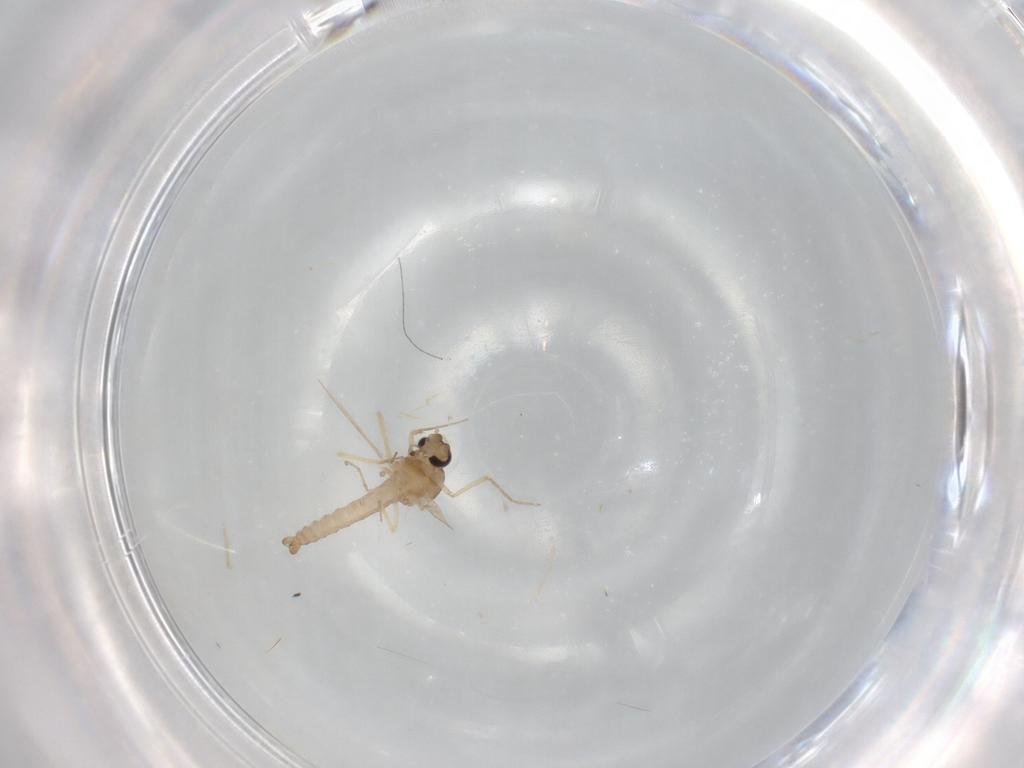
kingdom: Animalia
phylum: Arthropoda
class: Insecta
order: Diptera
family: Ceratopogonidae
